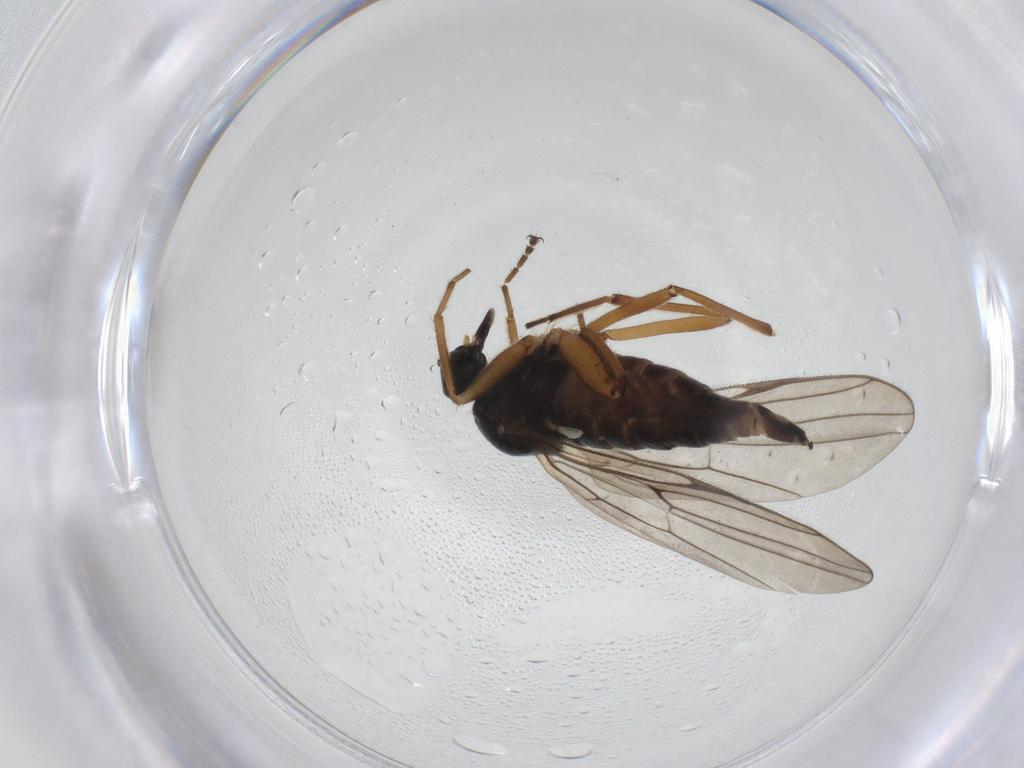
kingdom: Animalia
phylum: Arthropoda
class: Insecta
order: Diptera
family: Hybotidae
